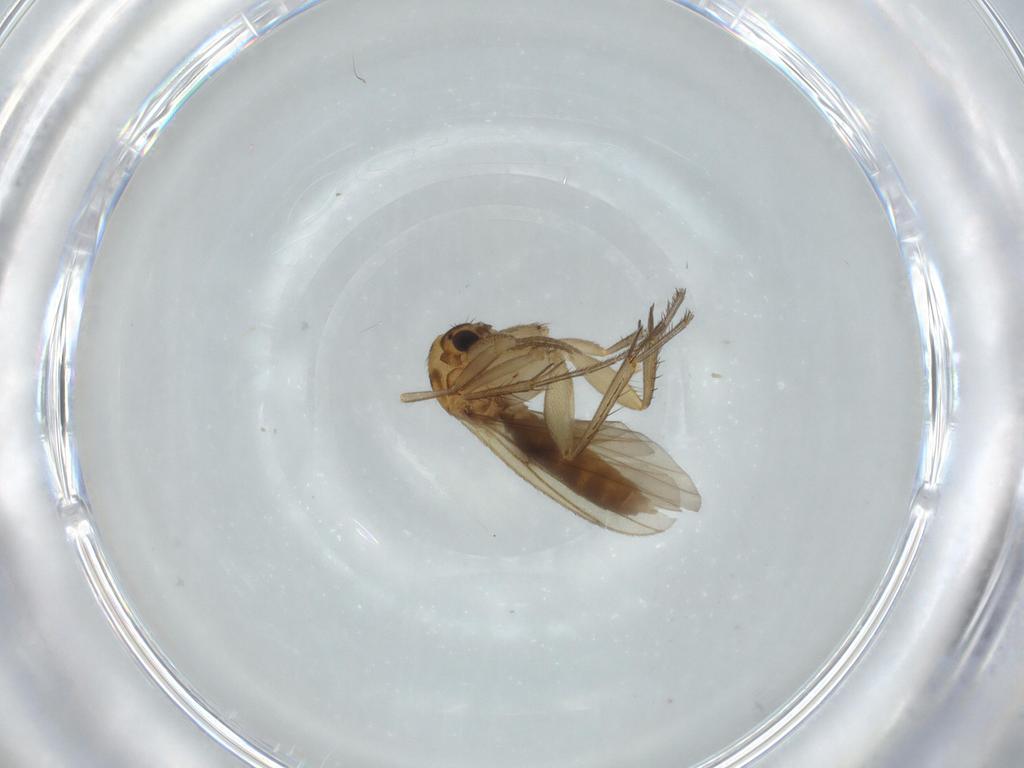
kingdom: Animalia
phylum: Arthropoda
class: Insecta
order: Diptera
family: Mycetophilidae
